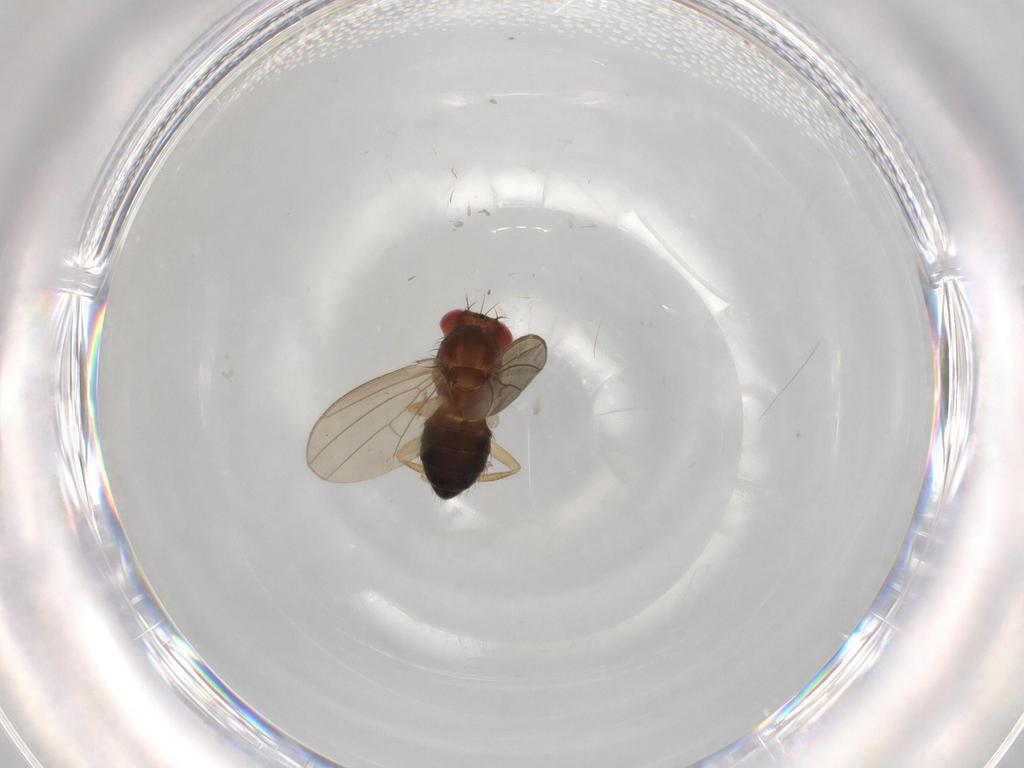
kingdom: Animalia
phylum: Arthropoda
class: Insecta
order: Diptera
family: Drosophilidae
